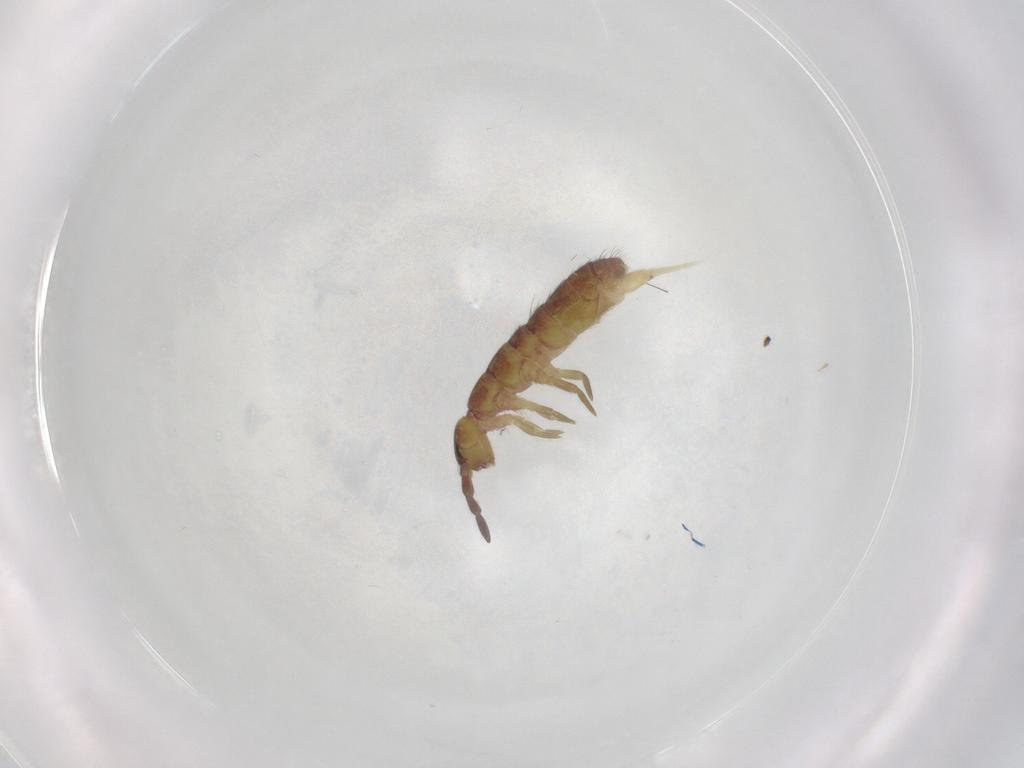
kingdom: Animalia
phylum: Arthropoda
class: Collembola
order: Entomobryomorpha
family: Isotomidae
